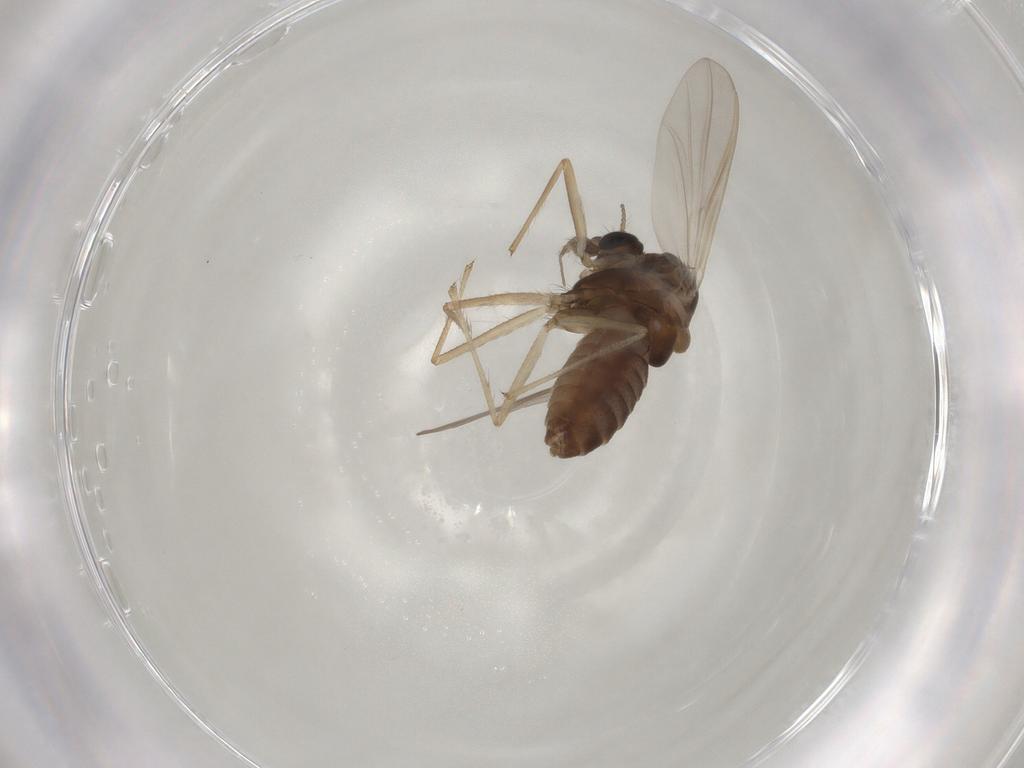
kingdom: Animalia
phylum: Arthropoda
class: Insecta
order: Diptera
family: Chironomidae
